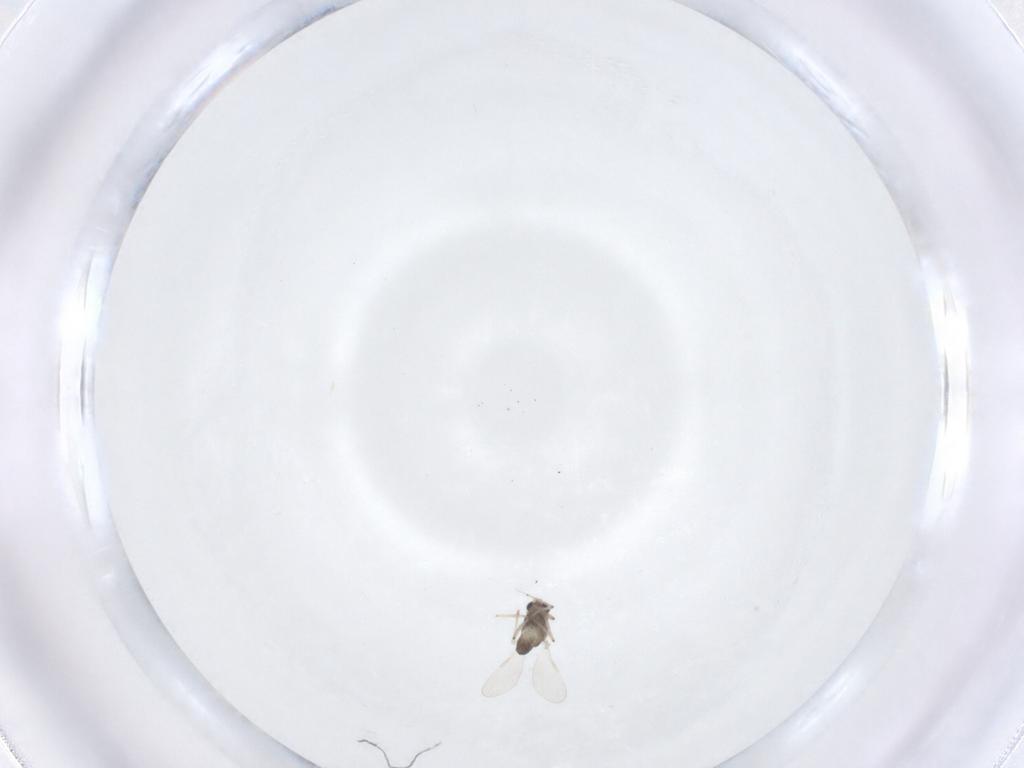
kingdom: Animalia
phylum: Arthropoda
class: Insecta
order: Diptera
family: Chironomidae
